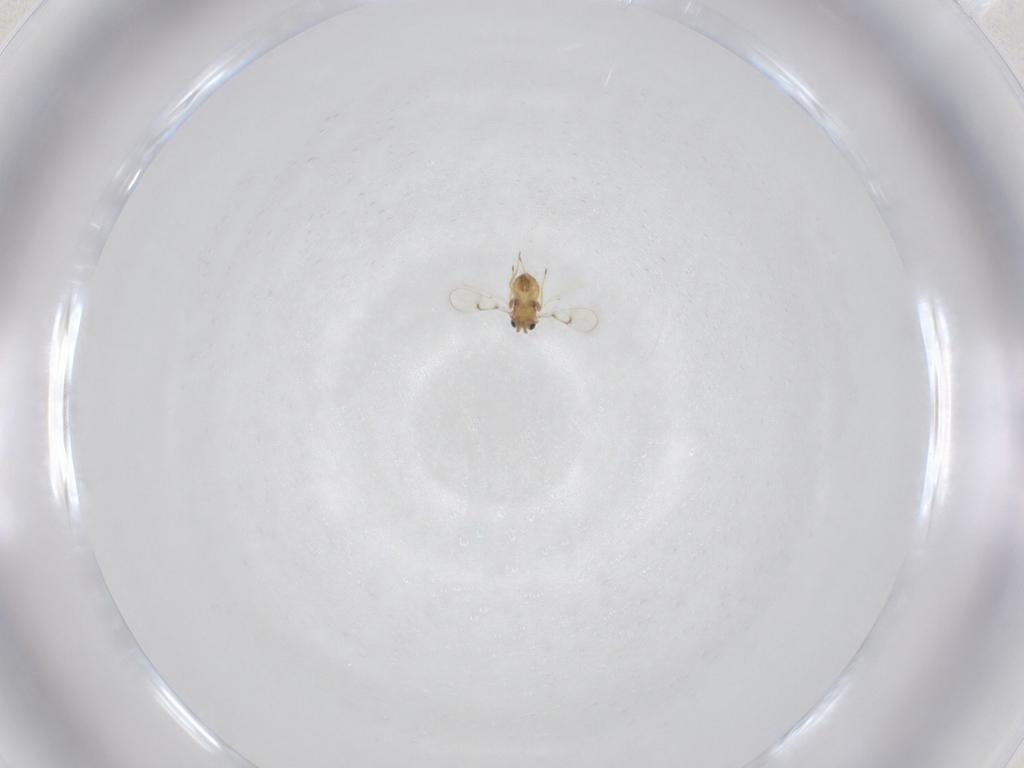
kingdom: Animalia
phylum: Arthropoda
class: Insecta
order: Hymenoptera
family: Trichogrammatidae
